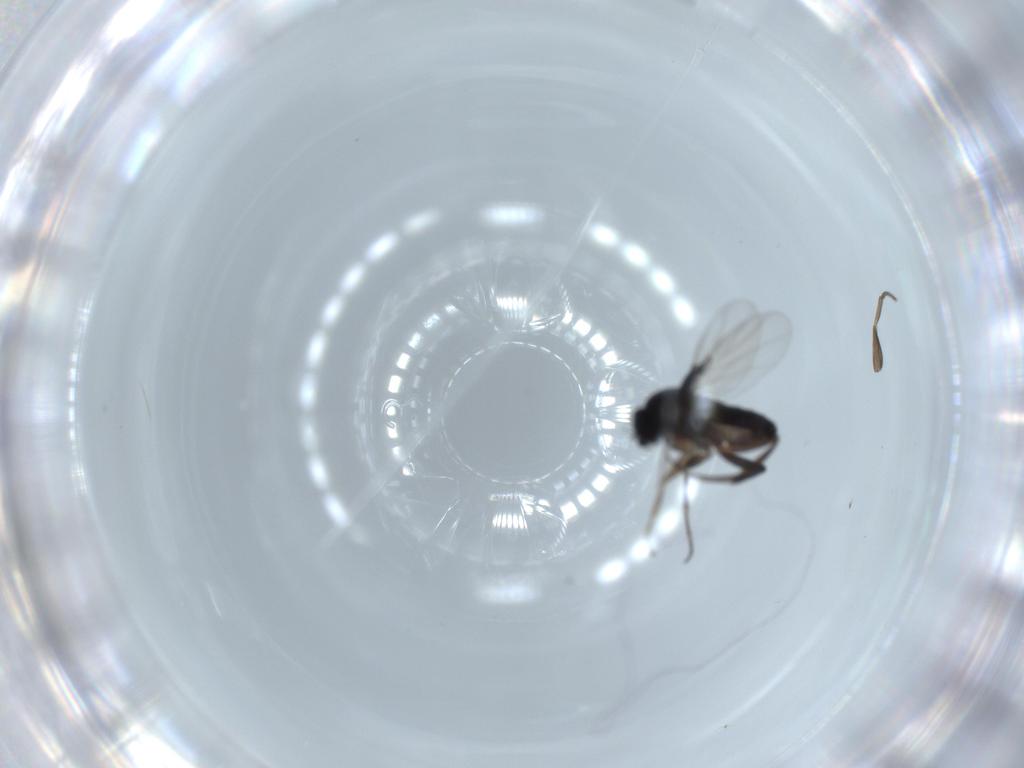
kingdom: Animalia
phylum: Arthropoda
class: Insecta
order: Diptera
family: Phoridae
